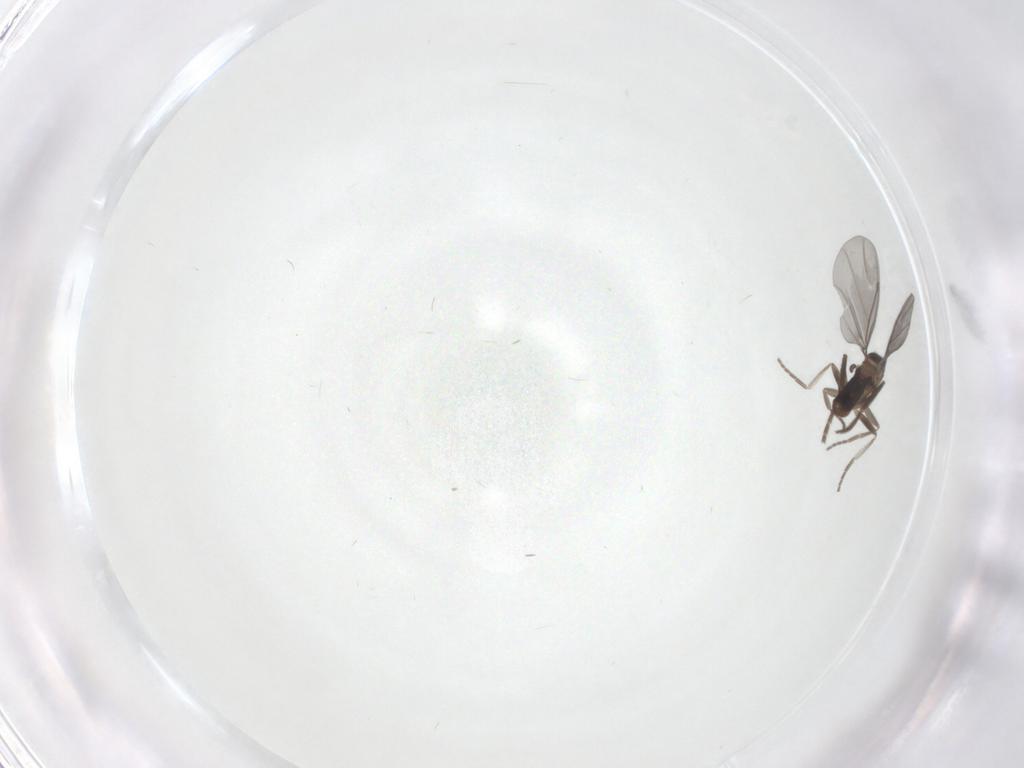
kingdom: Animalia
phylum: Arthropoda
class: Insecta
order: Diptera
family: Phoridae
